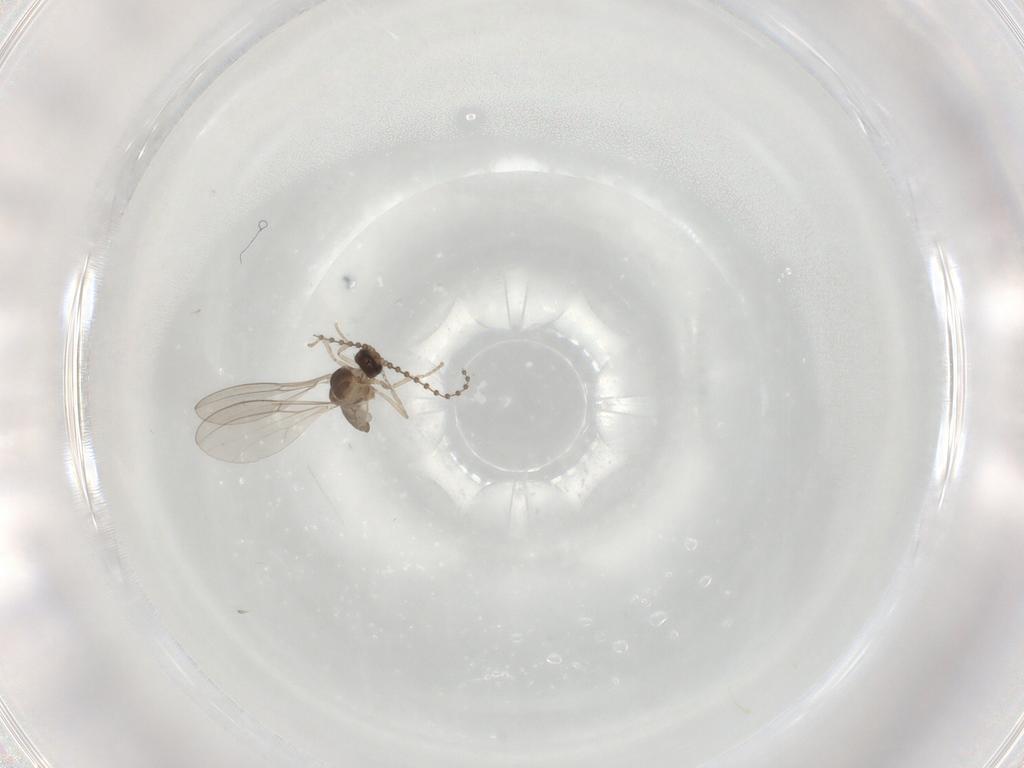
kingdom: Animalia
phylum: Arthropoda
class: Insecta
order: Diptera
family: Cecidomyiidae
